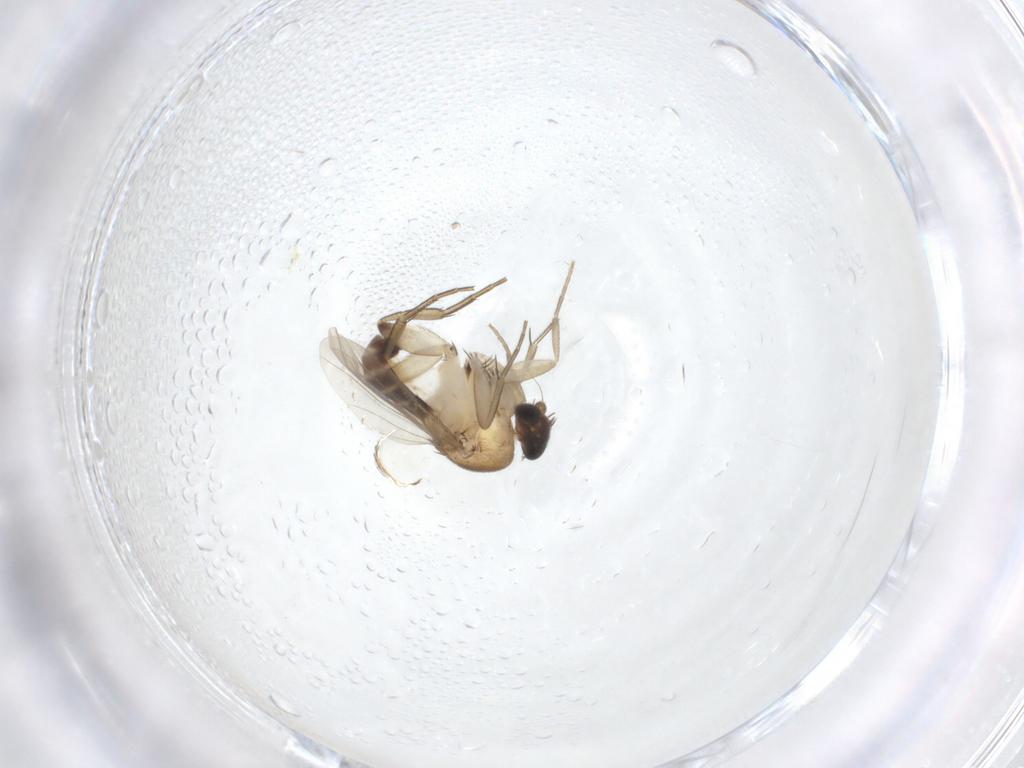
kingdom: Animalia
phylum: Arthropoda
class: Insecta
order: Diptera
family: Phoridae
